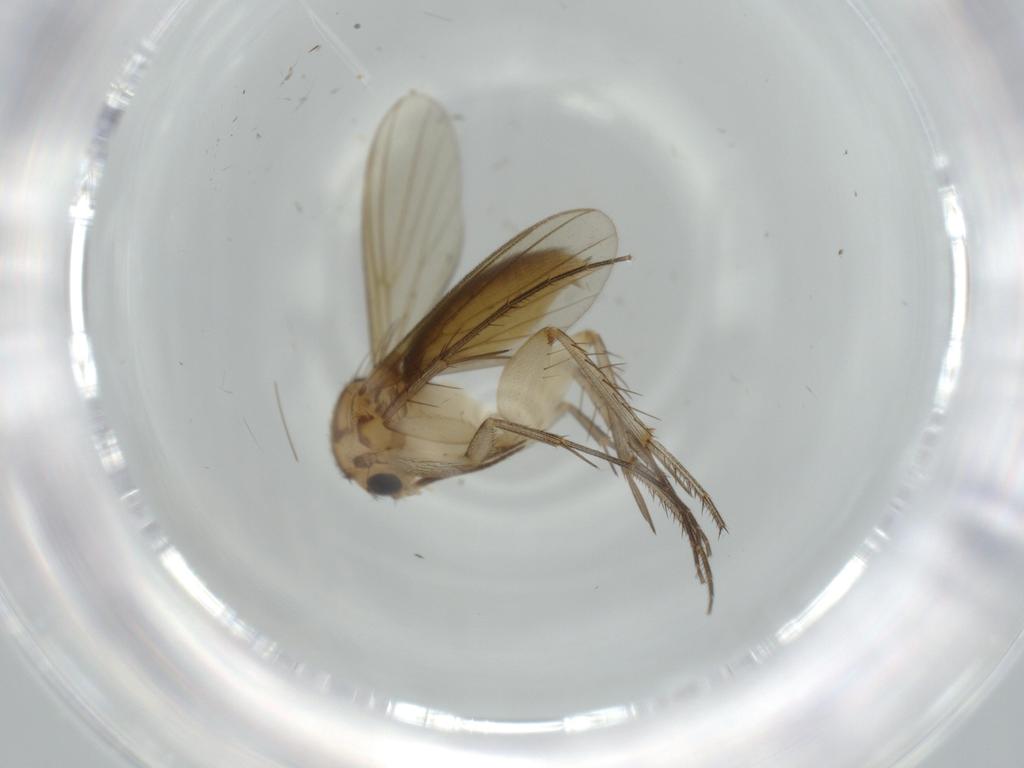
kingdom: Animalia
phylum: Arthropoda
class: Insecta
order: Diptera
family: Mycetophilidae
